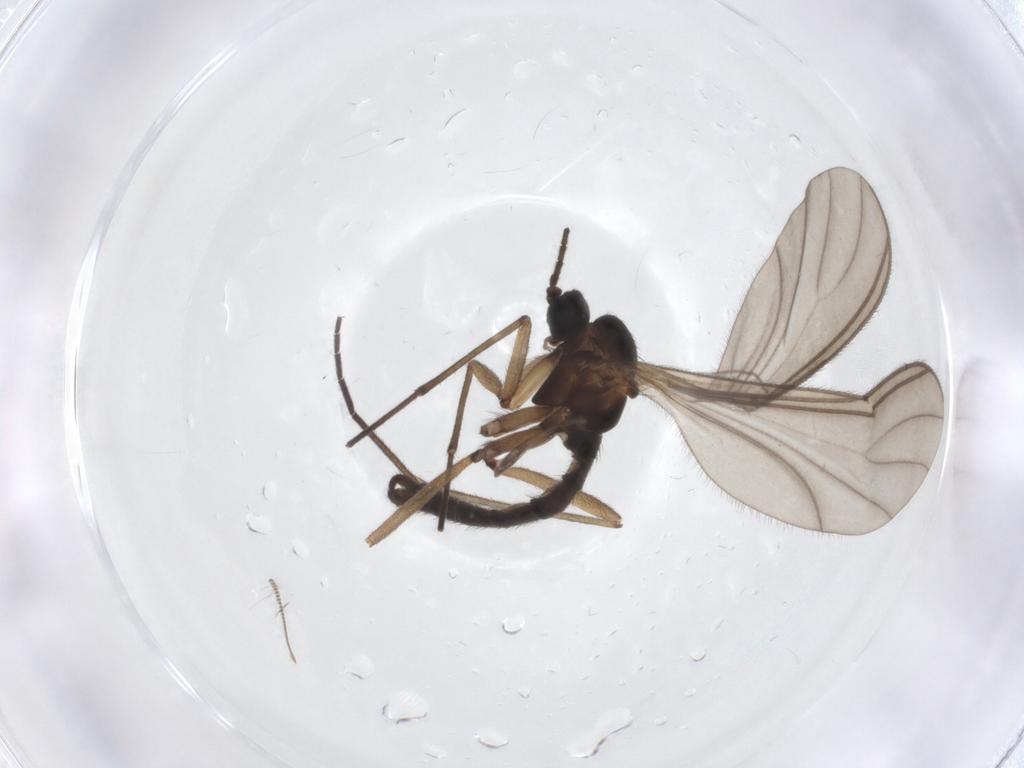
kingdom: Animalia
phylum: Arthropoda
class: Insecta
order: Diptera
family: Sciaridae
